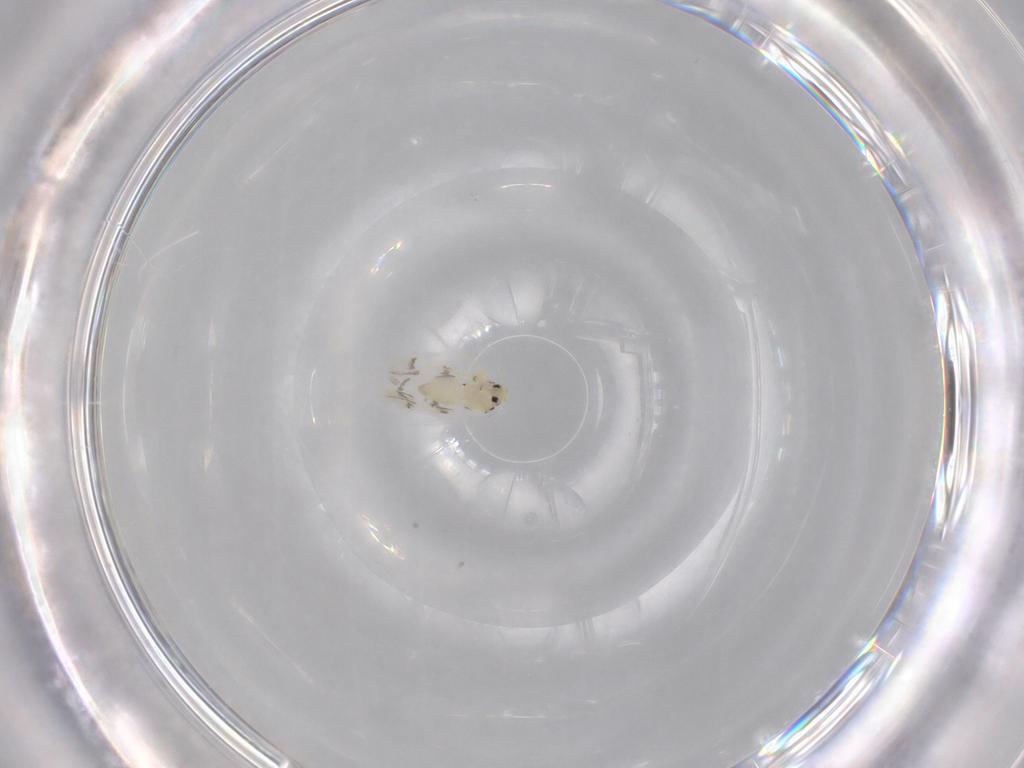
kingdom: Animalia
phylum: Arthropoda
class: Insecta
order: Hemiptera
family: Aleyrodidae
